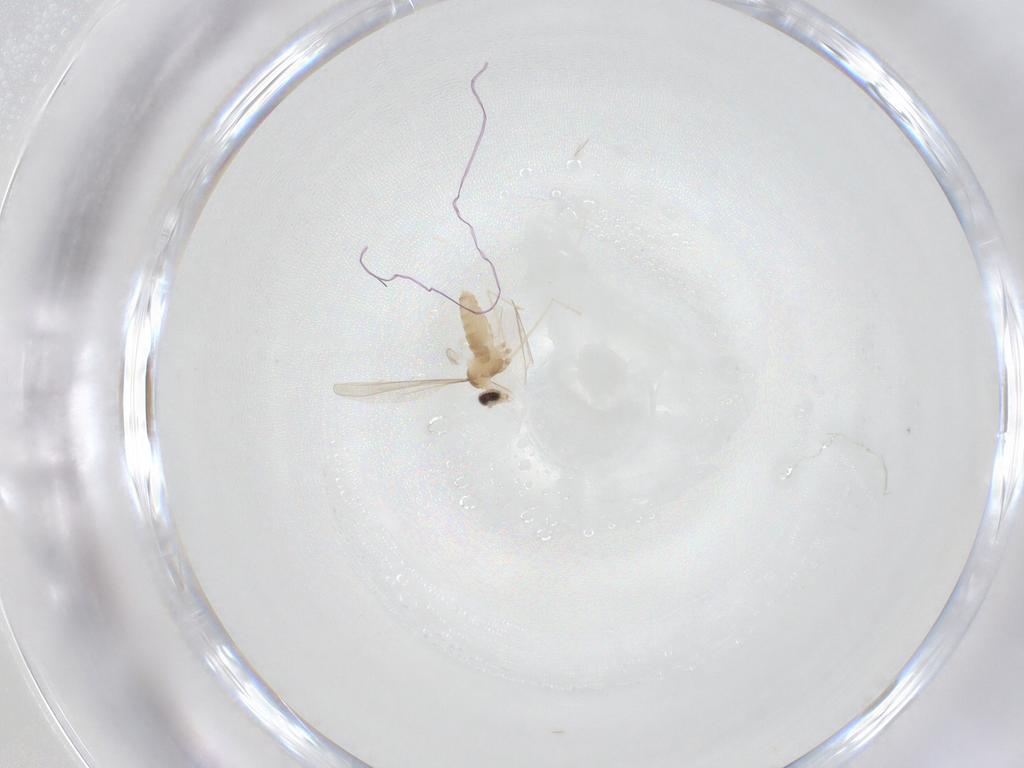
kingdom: Animalia
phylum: Arthropoda
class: Insecta
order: Diptera
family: Cecidomyiidae
